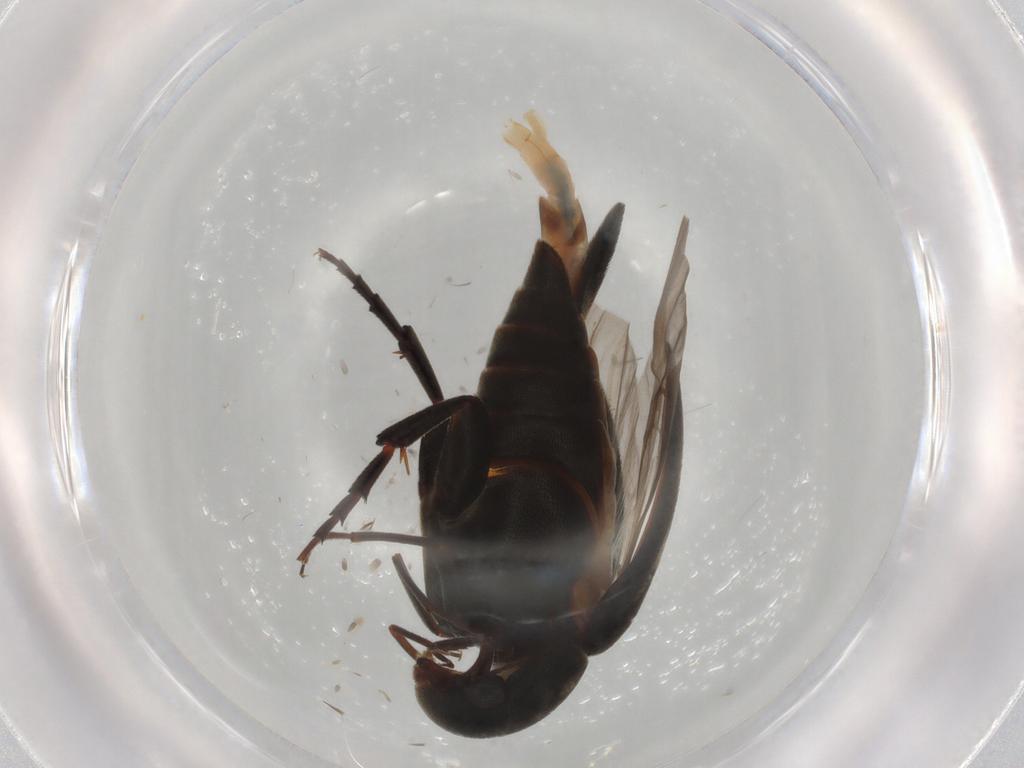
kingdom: Animalia
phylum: Arthropoda
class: Insecta
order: Coleoptera
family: Mordellidae
